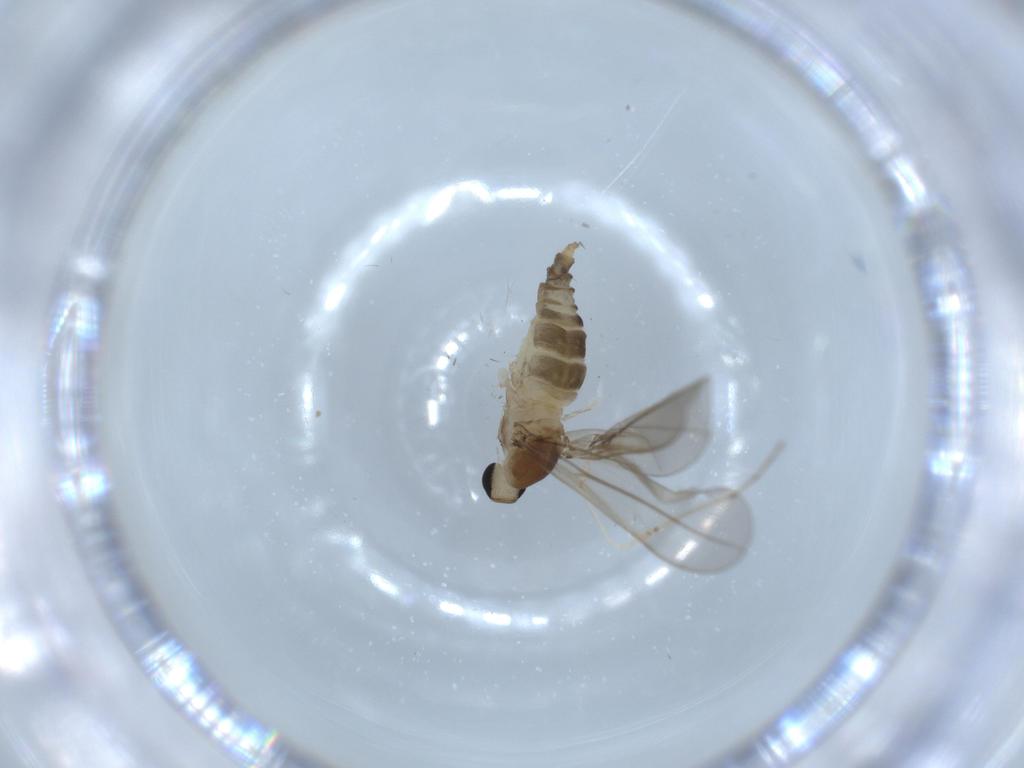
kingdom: Animalia
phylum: Arthropoda
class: Insecta
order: Diptera
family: Cecidomyiidae
